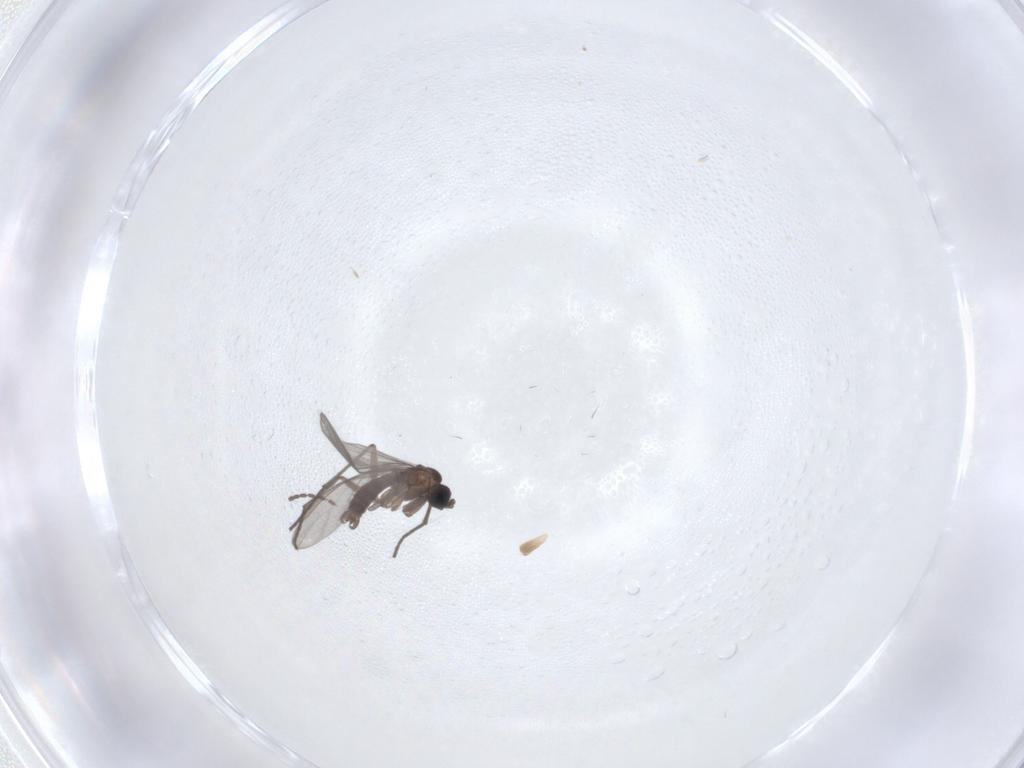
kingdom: Animalia
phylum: Arthropoda
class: Insecta
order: Diptera
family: Sciaridae
